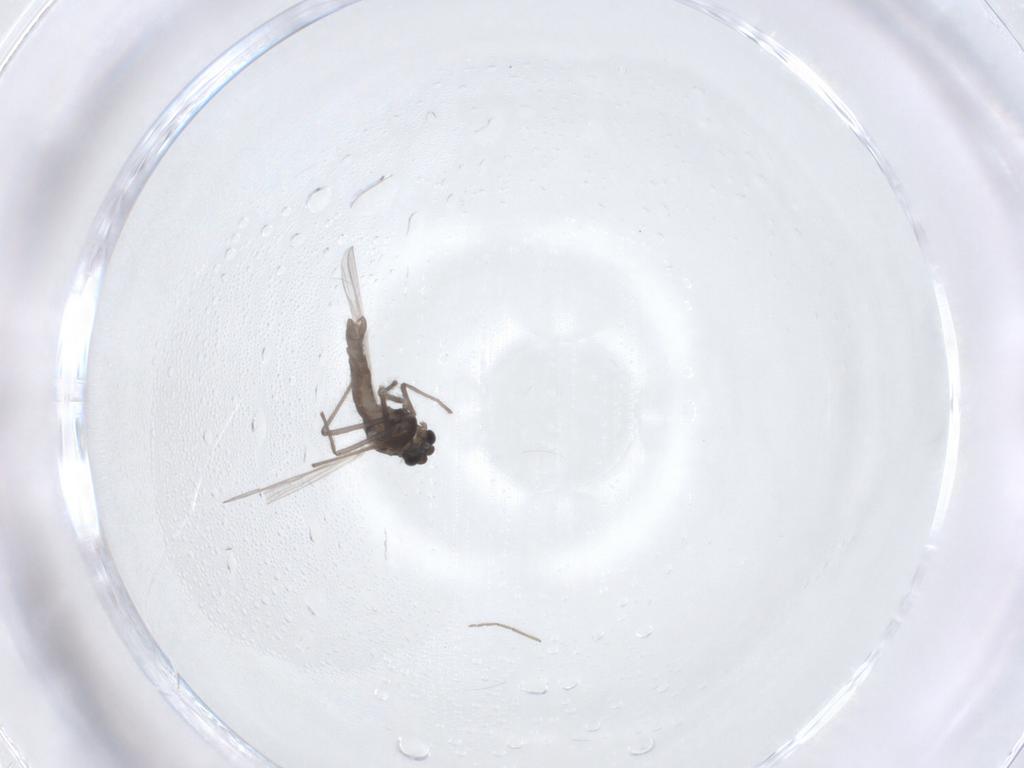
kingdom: Animalia
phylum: Arthropoda
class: Insecta
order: Diptera
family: Chironomidae
